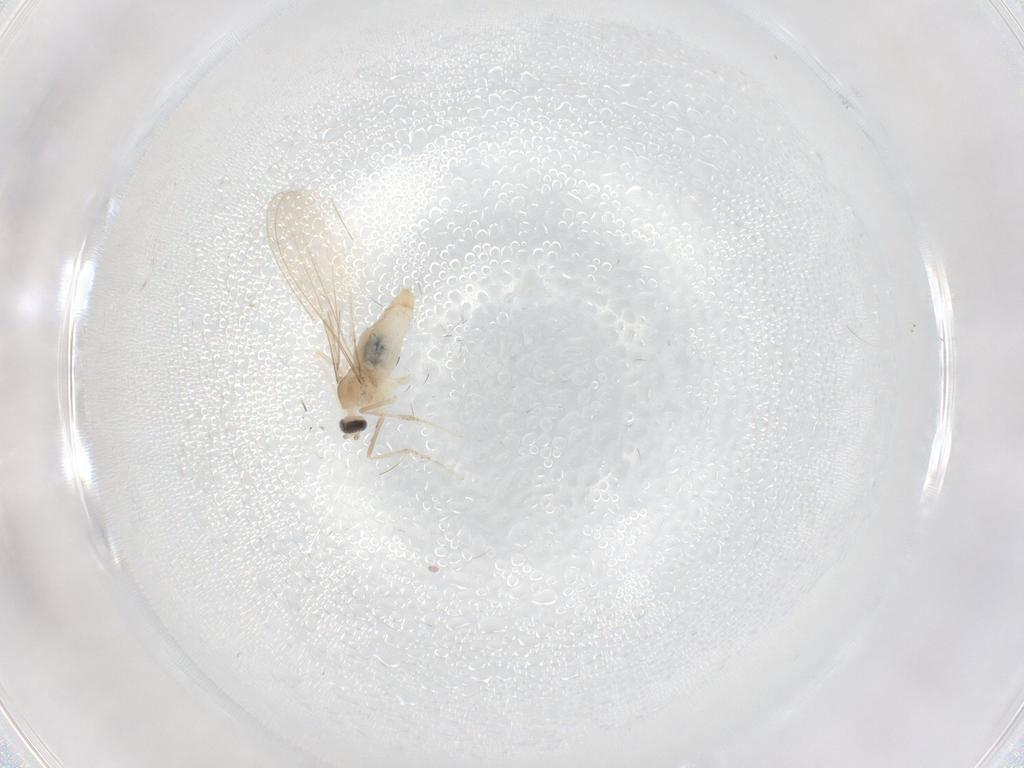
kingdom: Animalia
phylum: Arthropoda
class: Insecta
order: Diptera
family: Cecidomyiidae
